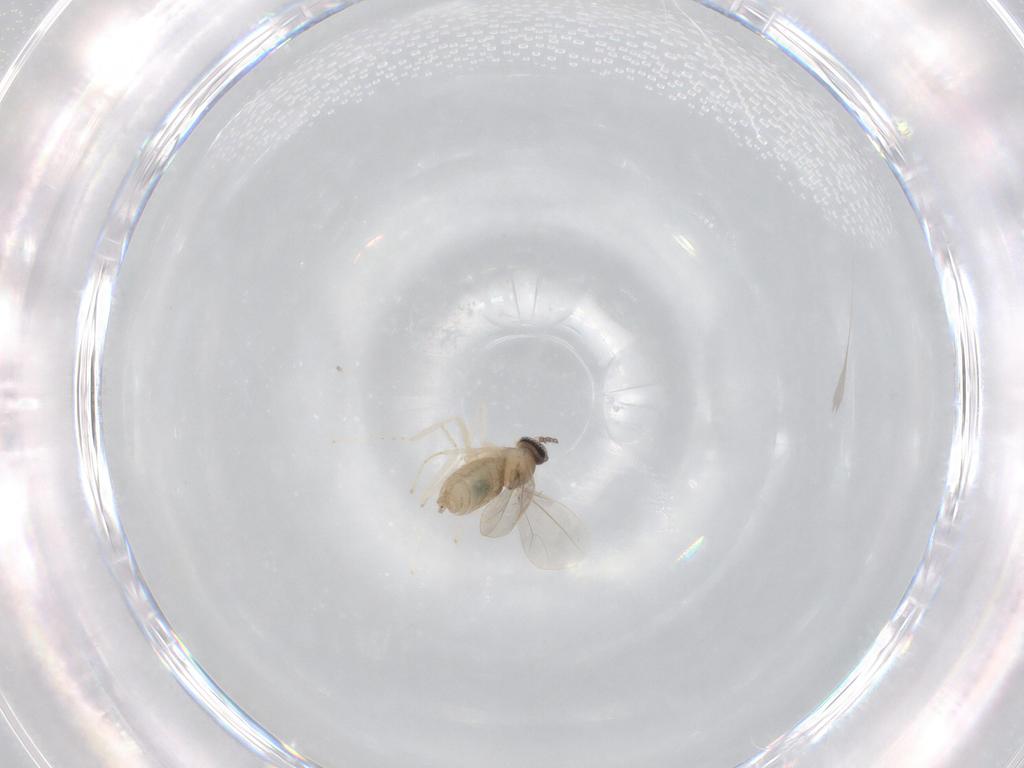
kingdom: Animalia
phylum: Arthropoda
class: Insecta
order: Diptera
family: Cecidomyiidae
